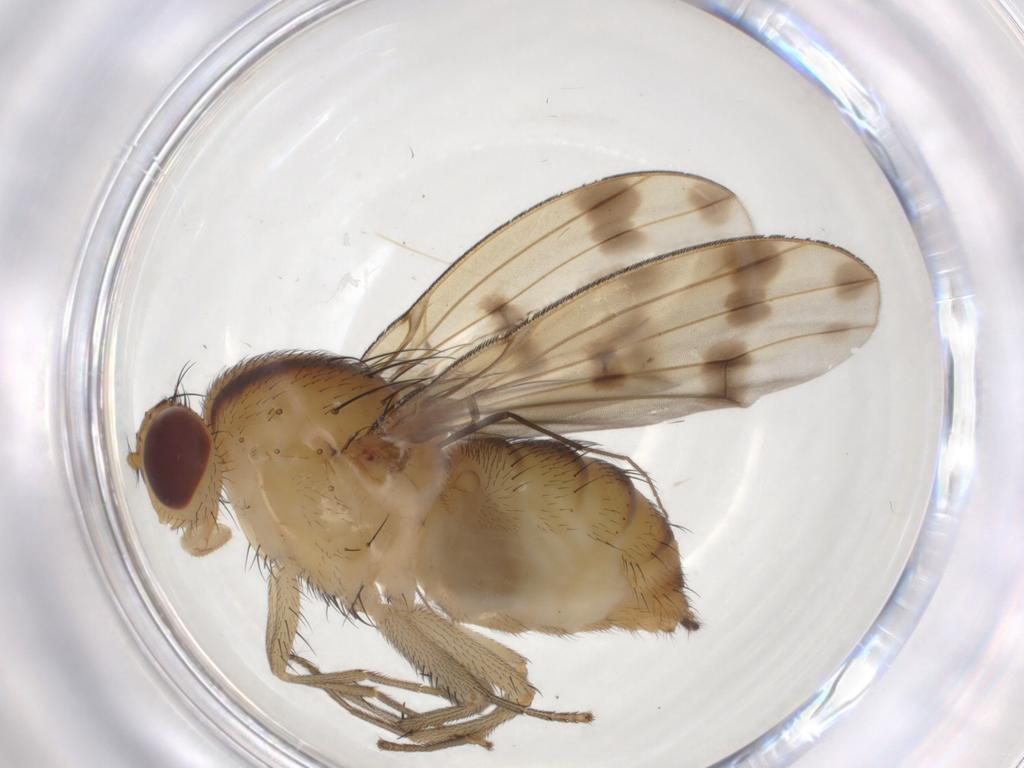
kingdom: Animalia
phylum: Arthropoda
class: Insecta
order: Diptera
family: Chironomidae
